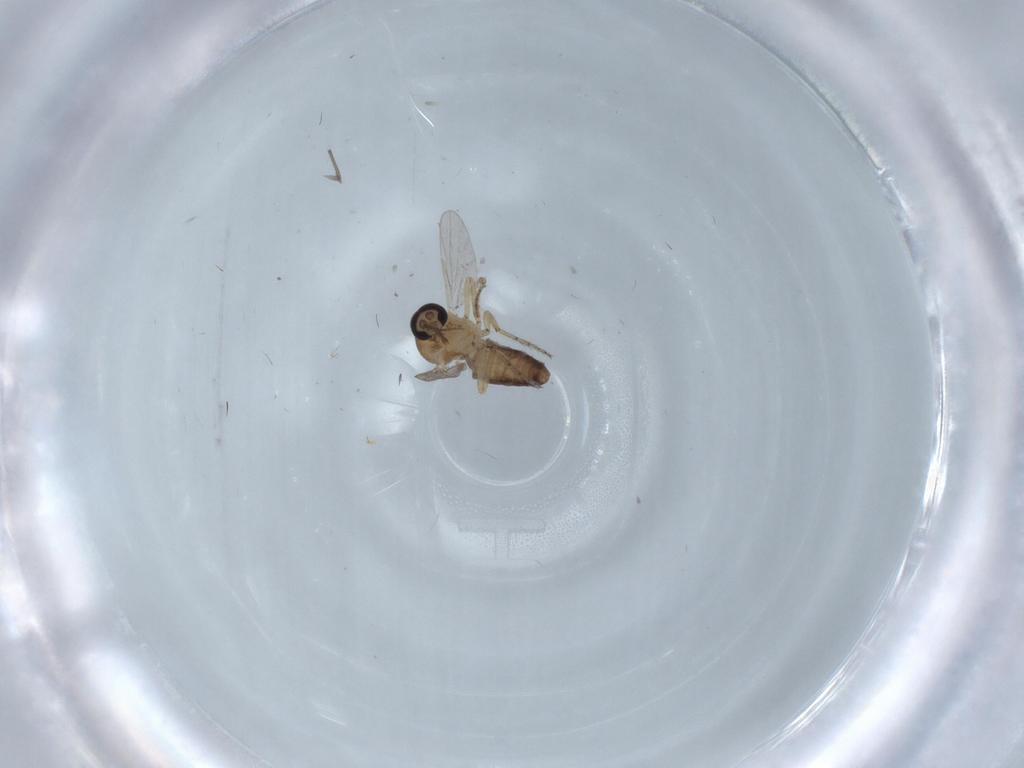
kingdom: Animalia
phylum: Arthropoda
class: Insecta
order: Diptera
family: Ceratopogonidae
